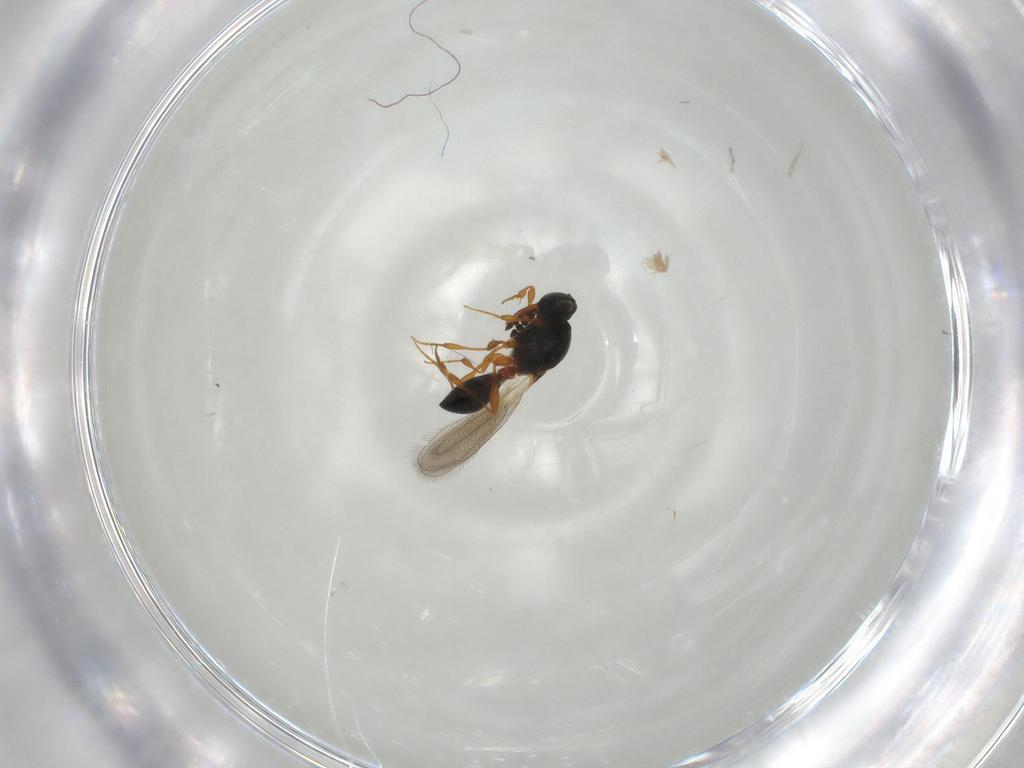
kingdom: Animalia
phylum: Arthropoda
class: Insecta
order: Hymenoptera
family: Platygastridae
